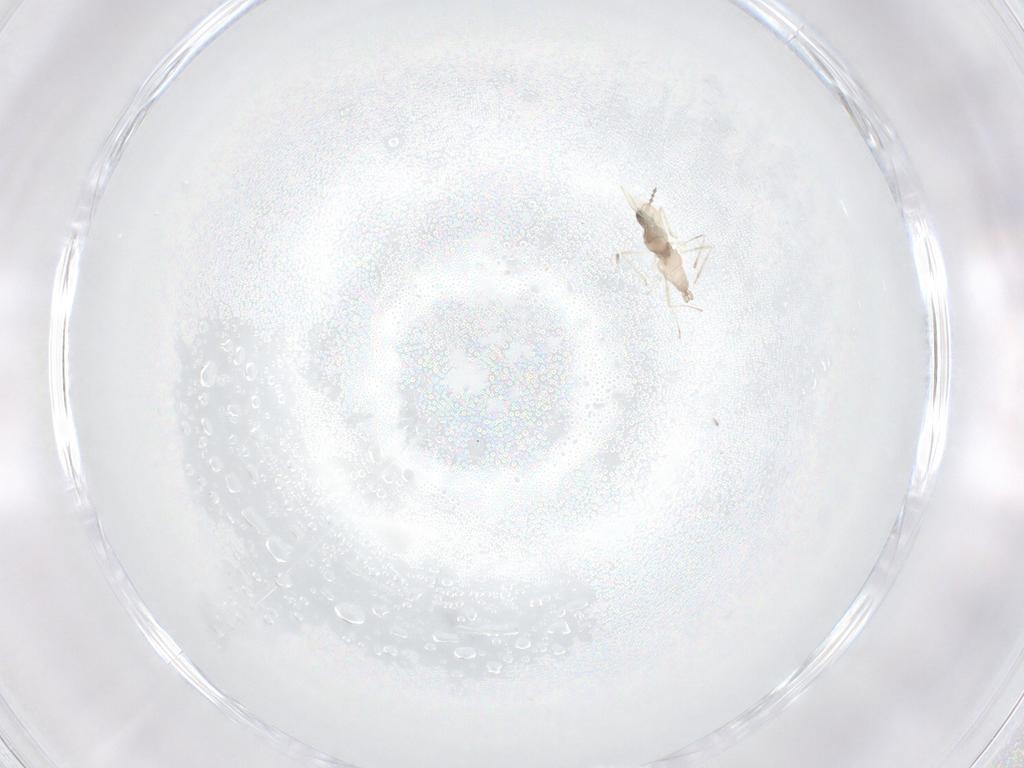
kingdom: Animalia
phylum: Arthropoda
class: Insecta
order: Diptera
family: Cecidomyiidae
